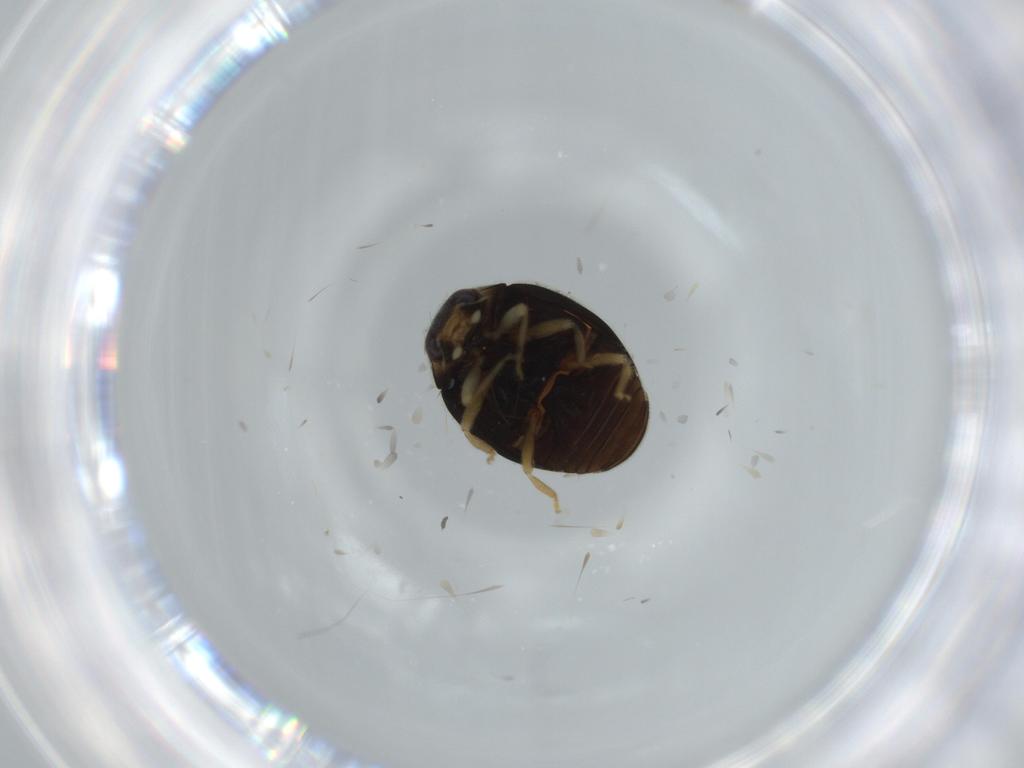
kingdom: Animalia
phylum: Arthropoda
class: Insecta
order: Coleoptera
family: Coccinellidae
